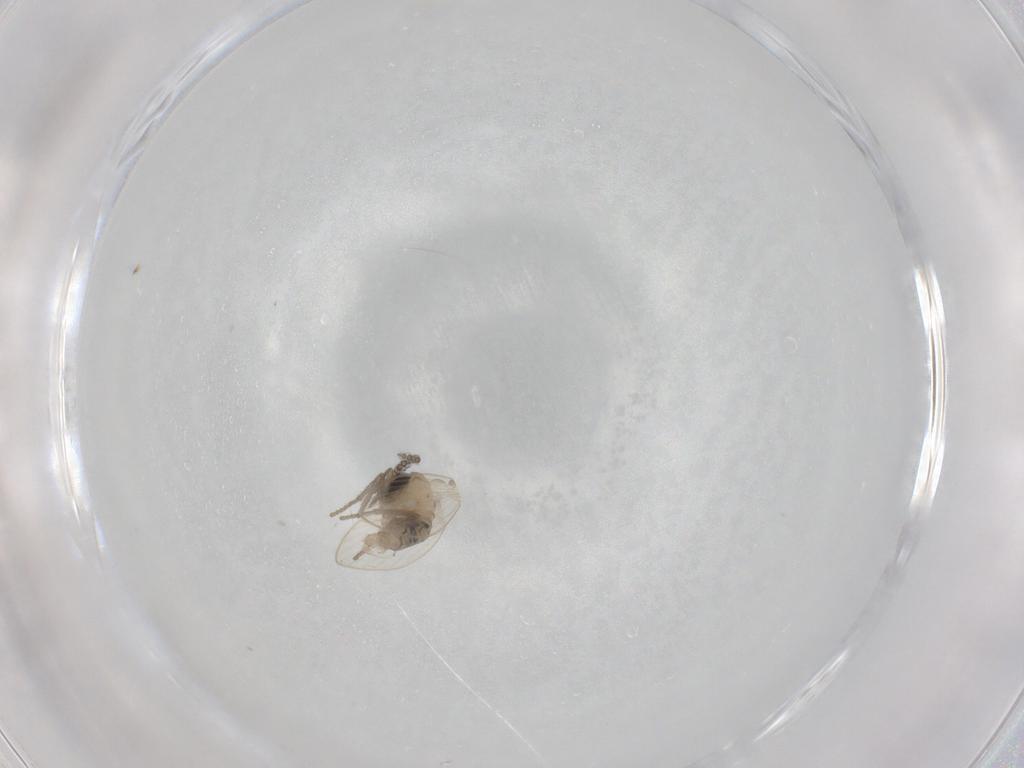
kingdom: Animalia
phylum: Arthropoda
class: Insecta
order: Diptera
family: Psychodidae
